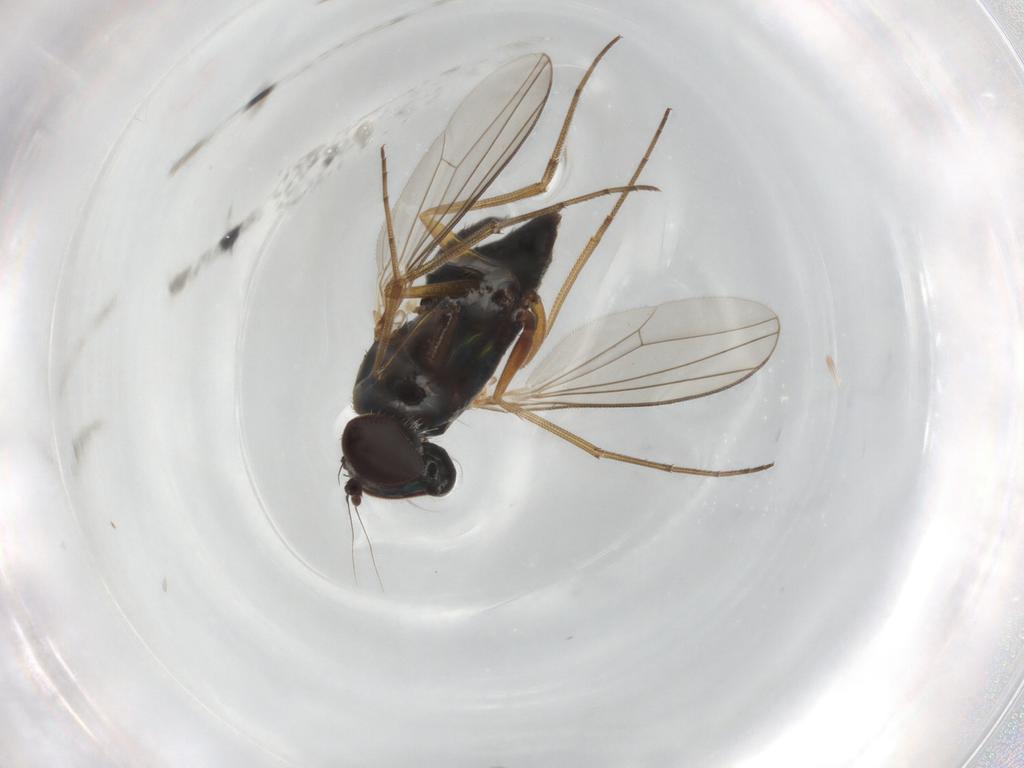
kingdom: Animalia
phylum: Arthropoda
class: Insecta
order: Diptera
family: Dolichopodidae
